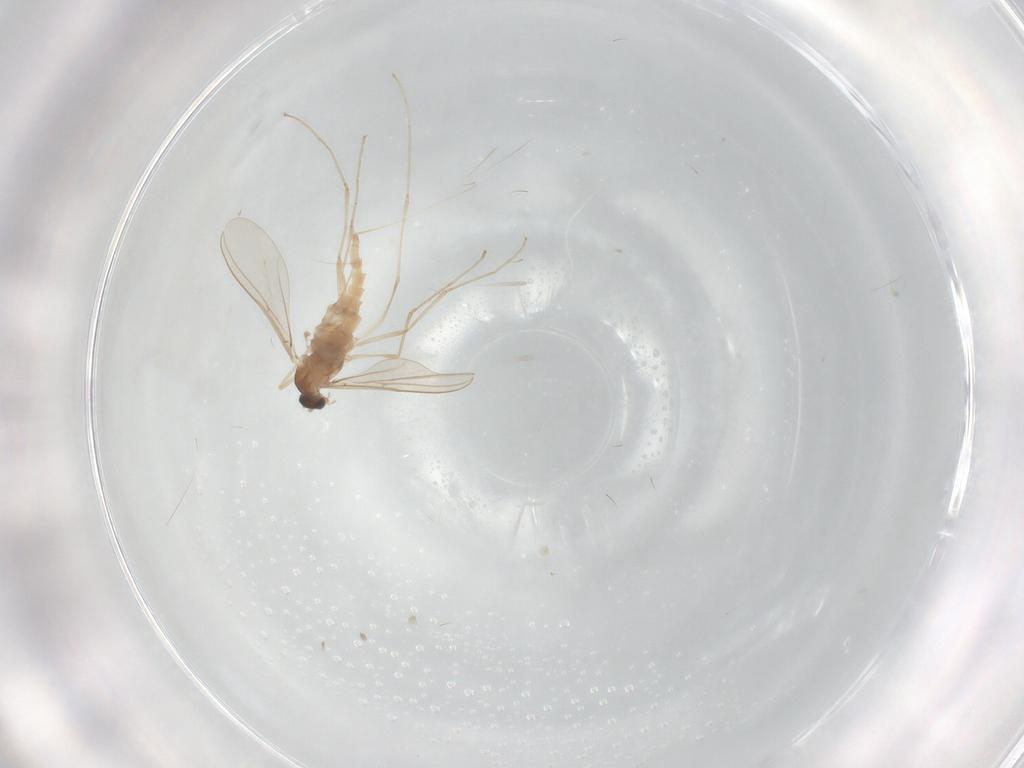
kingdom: Animalia
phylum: Arthropoda
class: Insecta
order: Diptera
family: Cecidomyiidae
